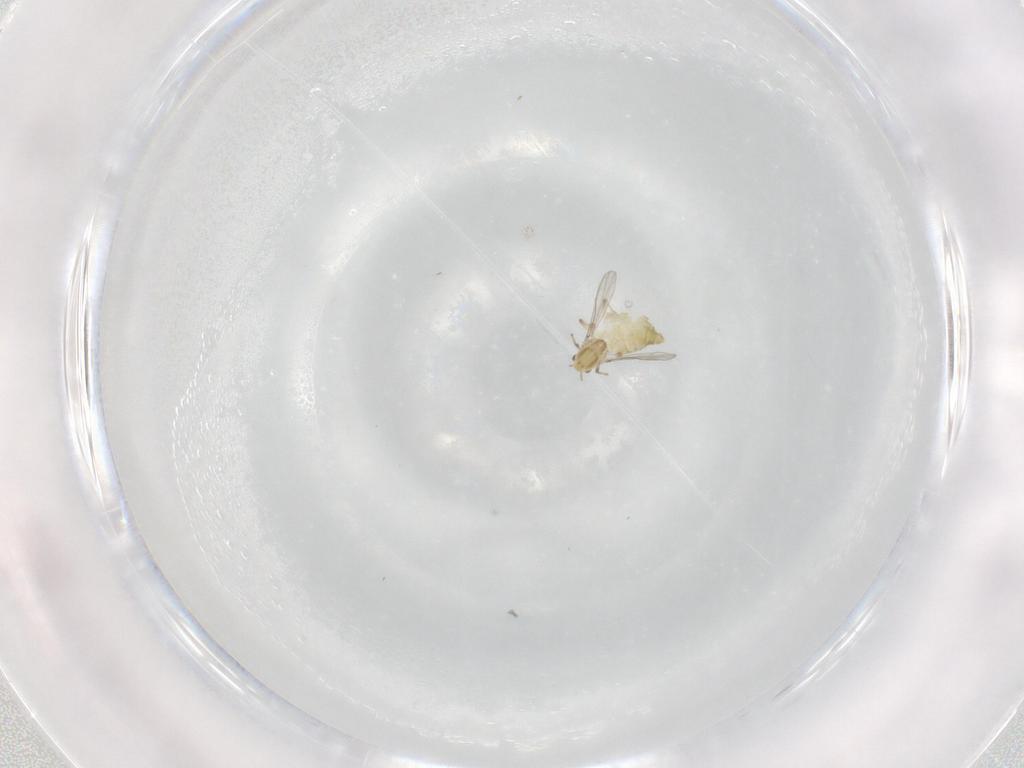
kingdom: Animalia
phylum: Arthropoda
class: Insecta
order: Diptera
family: Chironomidae
